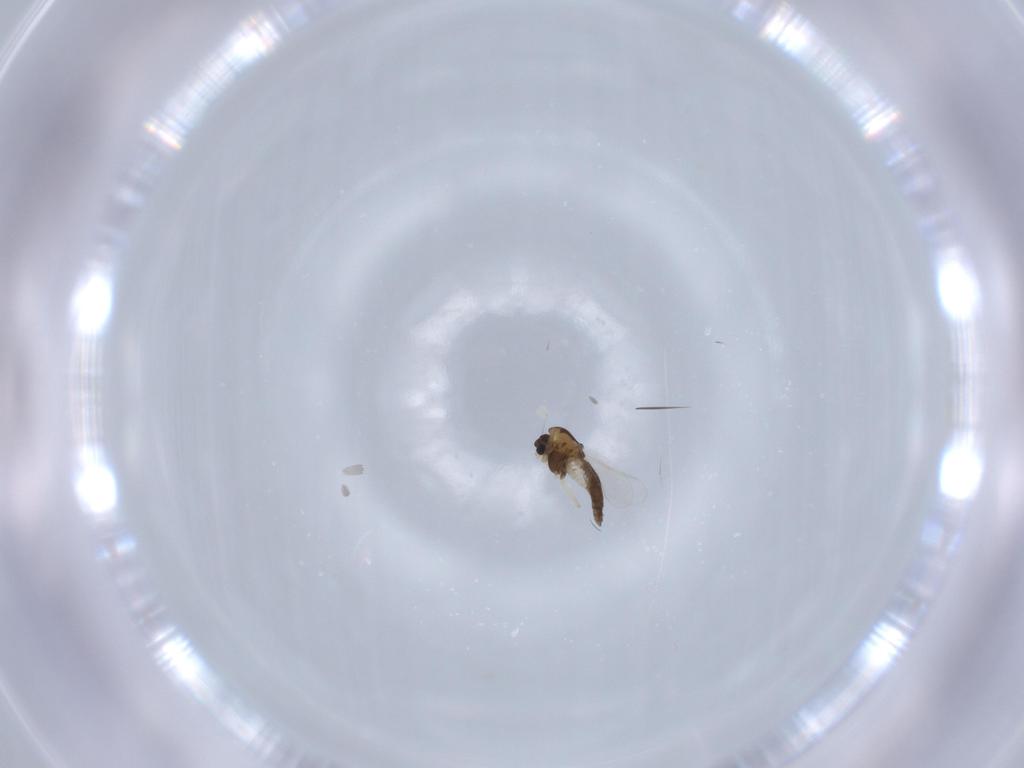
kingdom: Animalia
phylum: Arthropoda
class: Insecta
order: Diptera
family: Chironomidae
